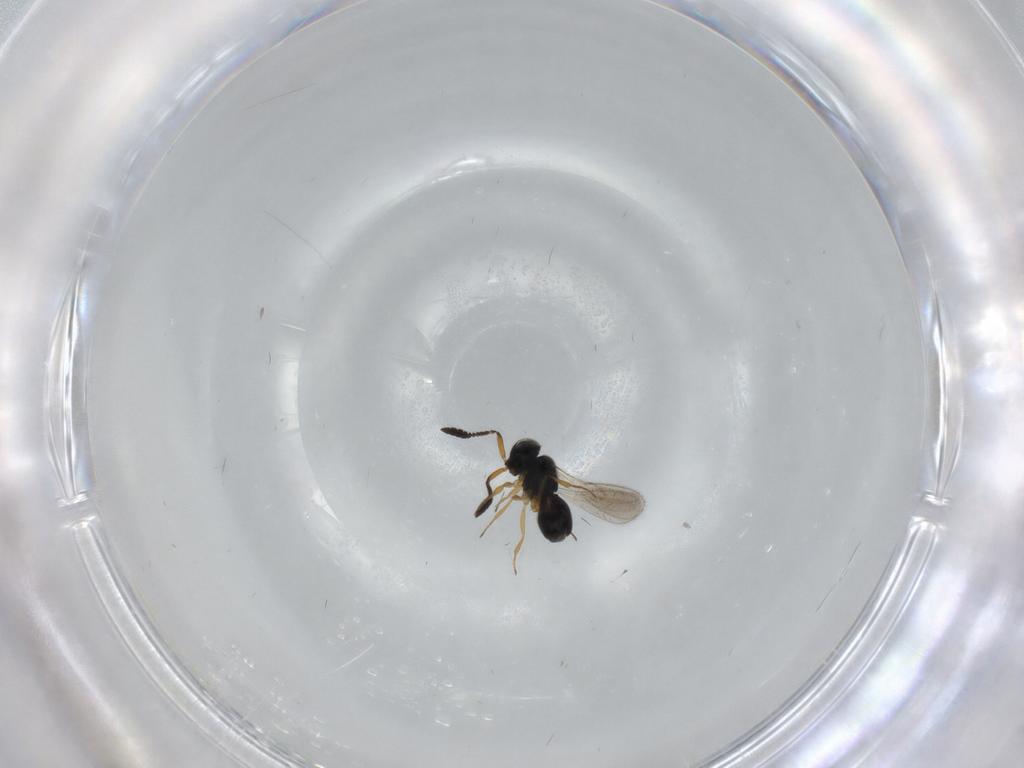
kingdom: Animalia
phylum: Arthropoda
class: Insecta
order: Hymenoptera
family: Scelionidae
